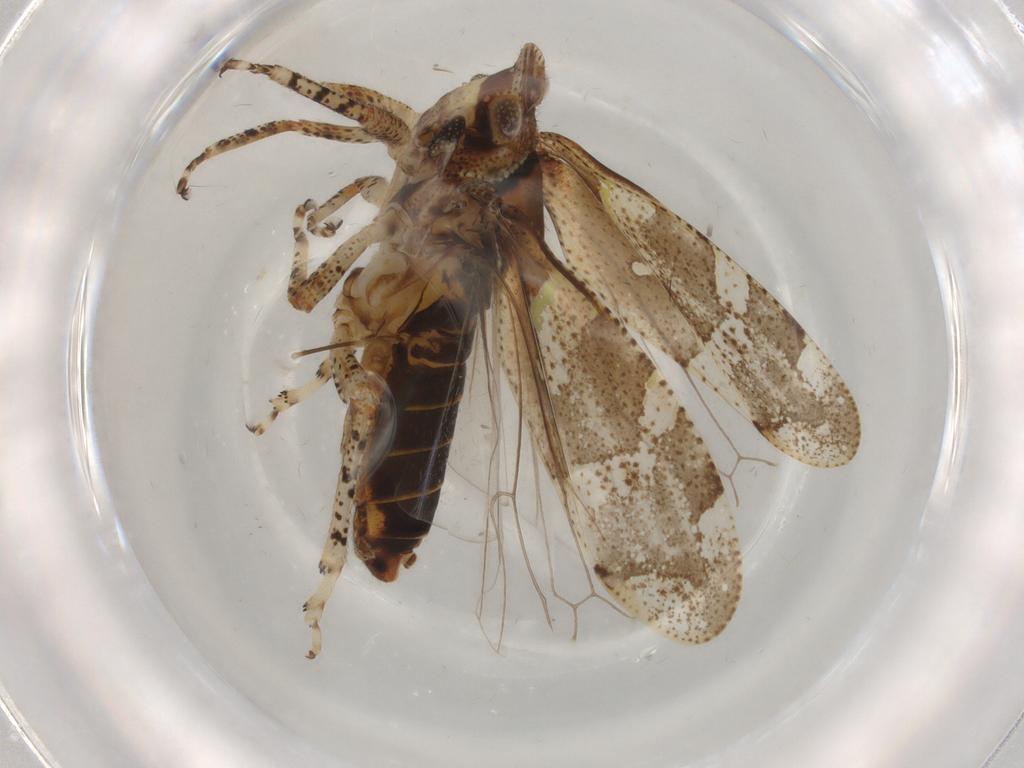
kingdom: Animalia
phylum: Arthropoda
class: Insecta
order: Hemiptera
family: Tettigometridae
